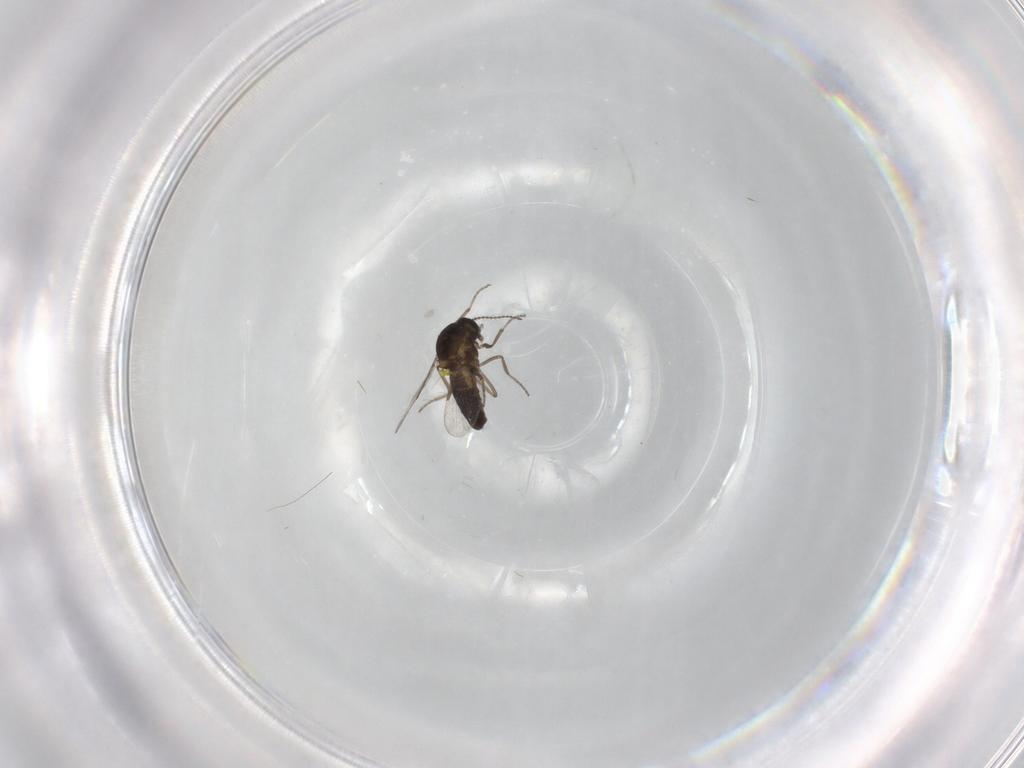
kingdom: Animalia
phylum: Arthropoda
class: Insecta
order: Diptera
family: Ceratopogonidae
